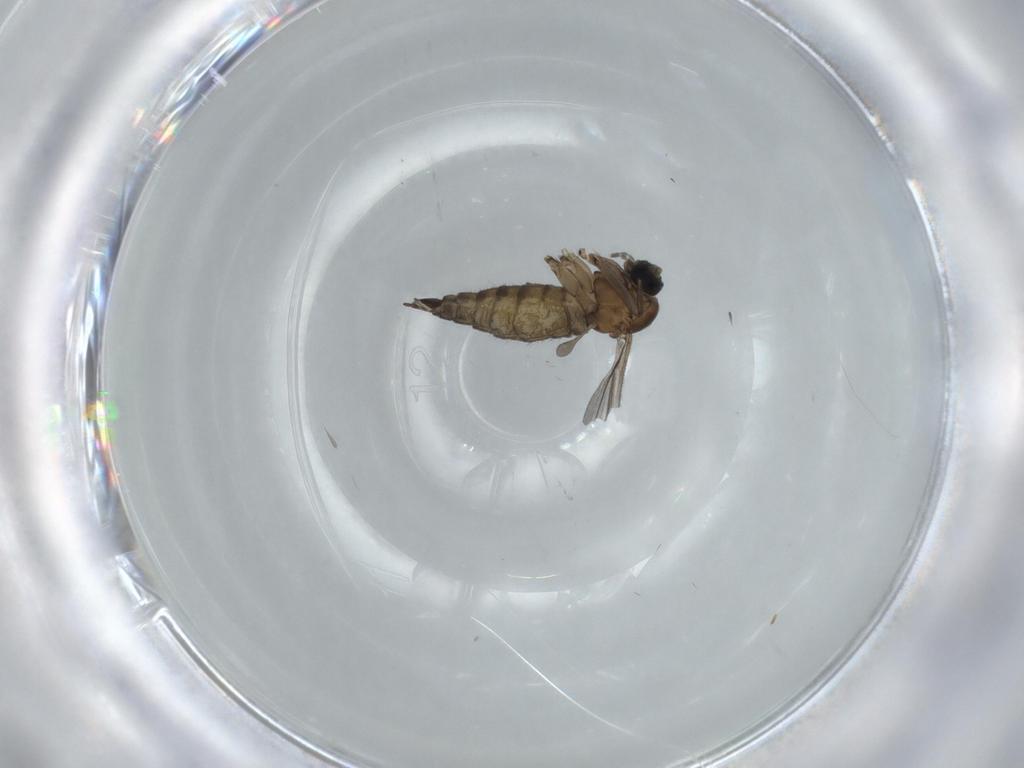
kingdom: Animalia
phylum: Arthropoda
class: Insecta
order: Diptera
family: Sciaridae
